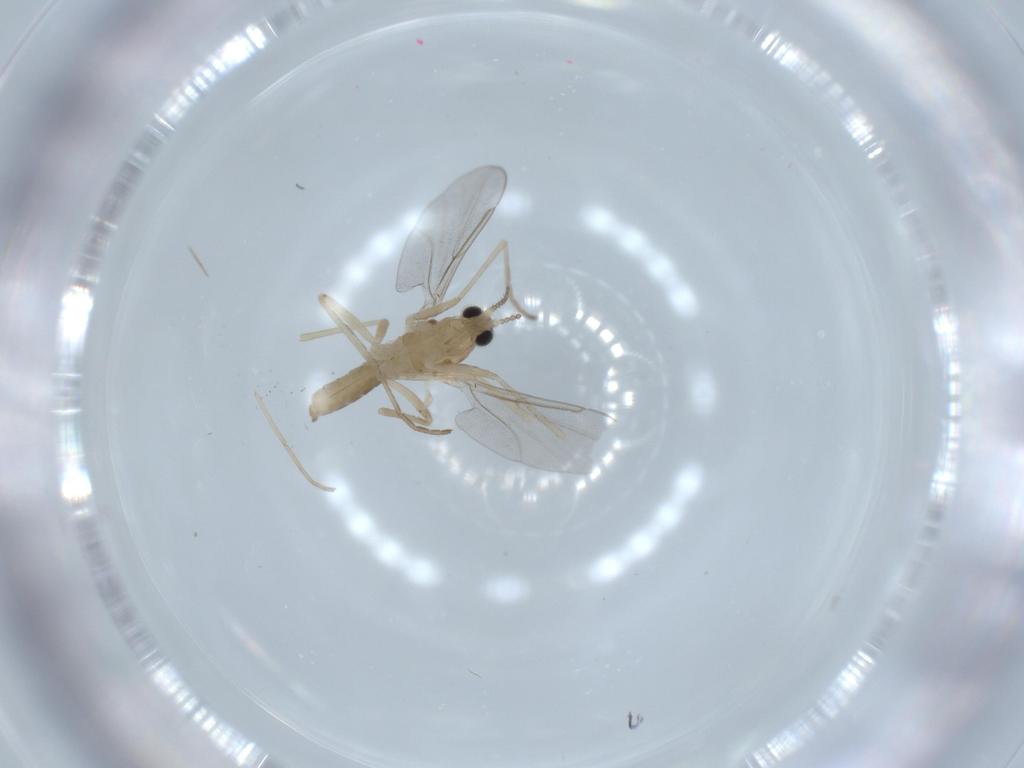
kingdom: Animalia
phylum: Arthropoda
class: Insecta
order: Diptera
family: Cecidomyiidae
